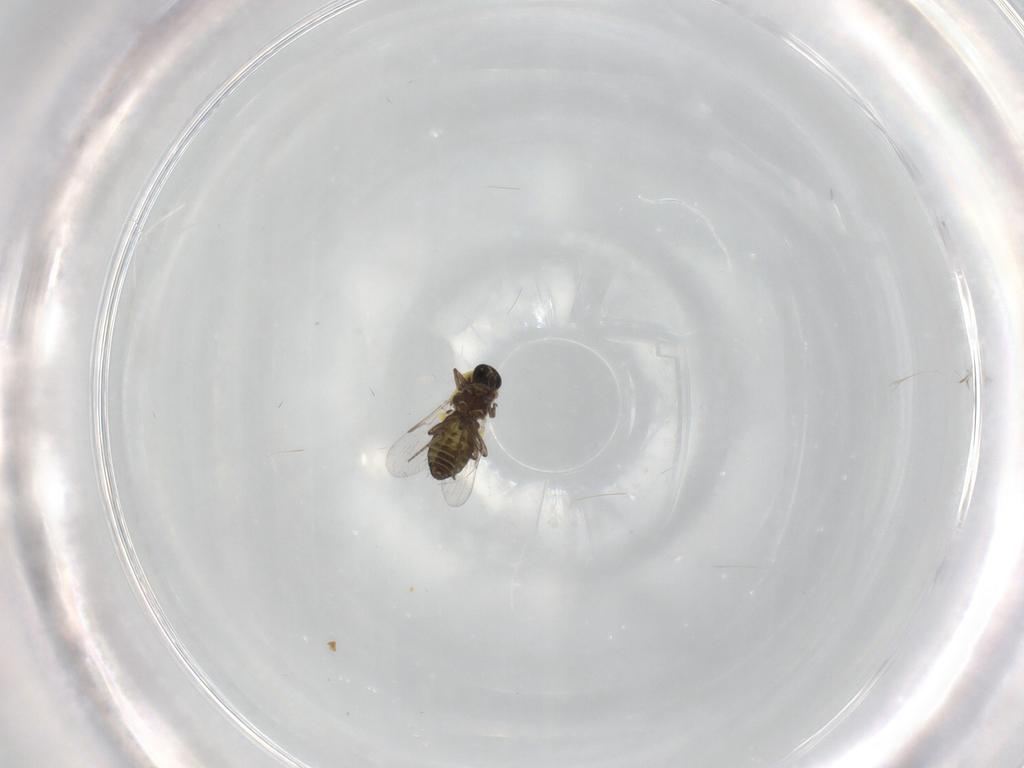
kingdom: Animalia
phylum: Arthropoda
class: Insecta
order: Diptera
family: Ceratopogonidae
